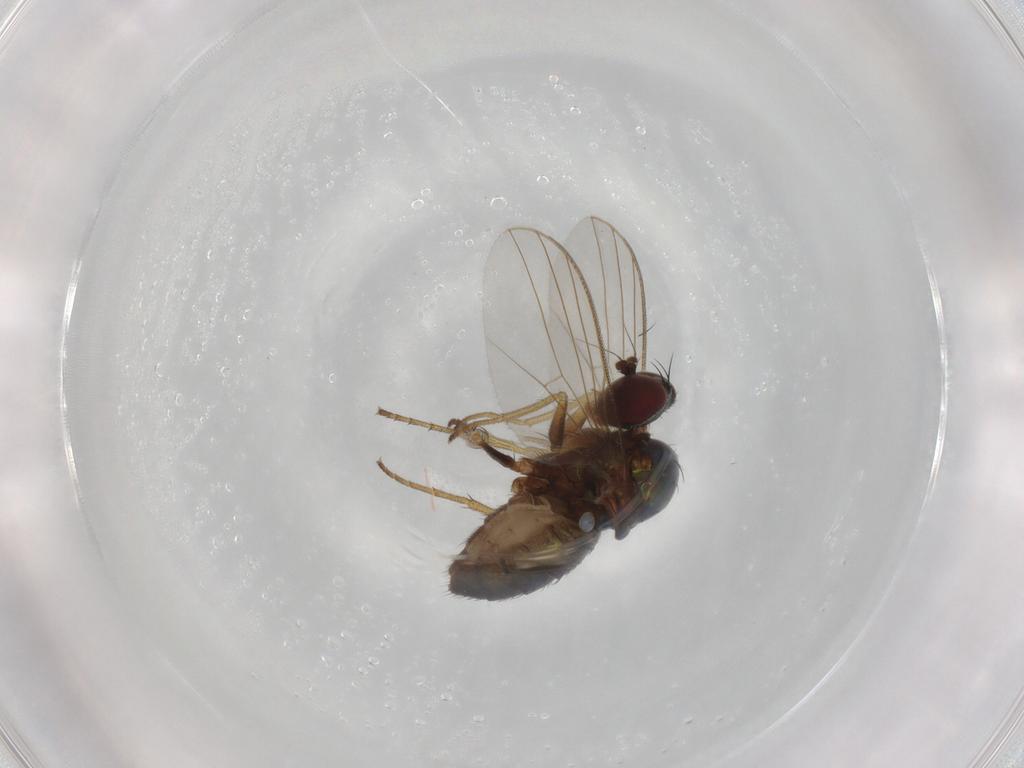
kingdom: Animalia
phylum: Arthropoda
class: Insecta
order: Diptera
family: Dolichopodidae
